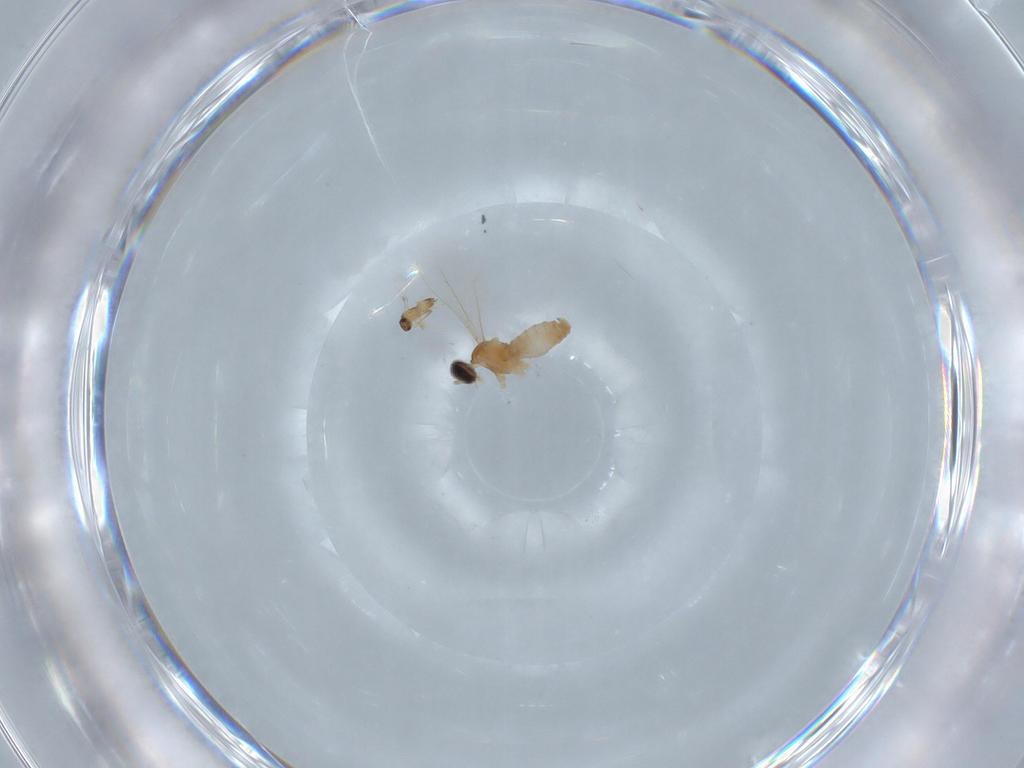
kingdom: Animalia
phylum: Arthropoda
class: Insecta
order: Diptera
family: Cecidomyiidae
